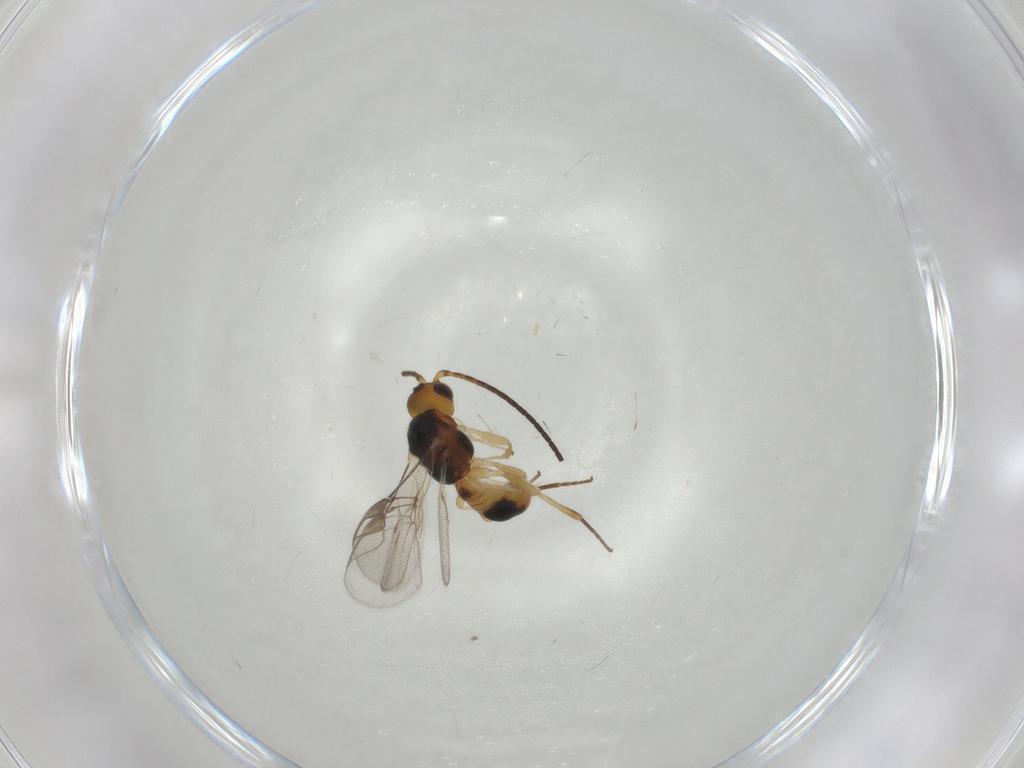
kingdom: Animalia
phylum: Arthropoda
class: Insecta
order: Hymenoptera
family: Braconidae
